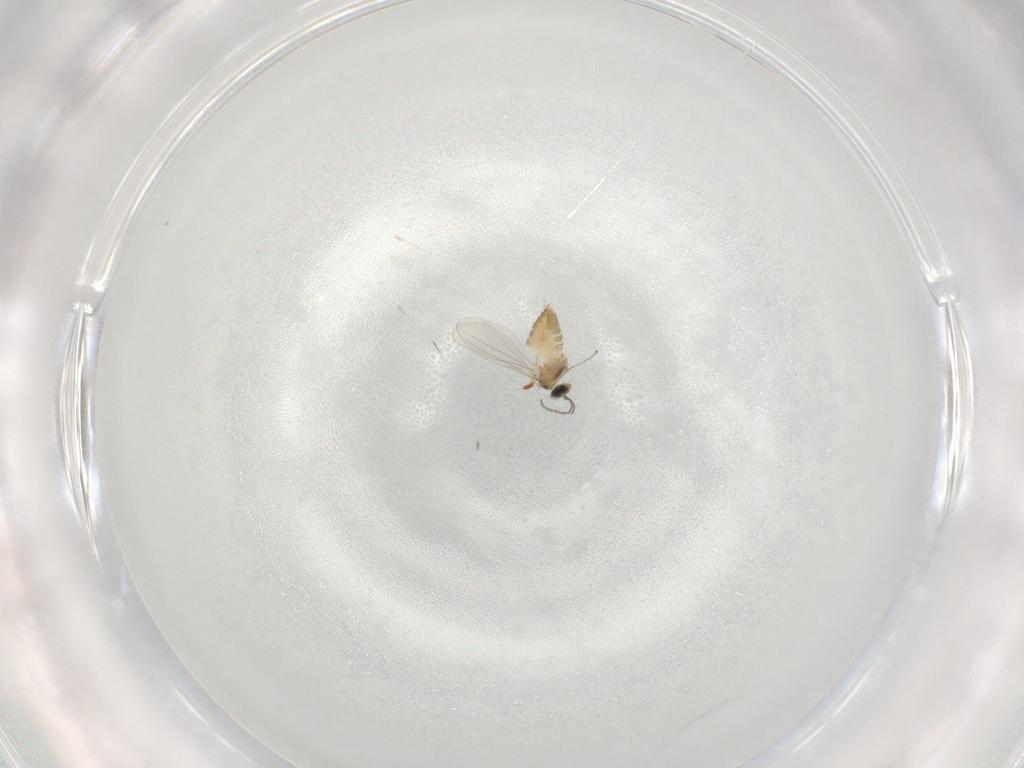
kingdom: Animalia
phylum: Arthropoda
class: Insecta
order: Diptera
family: Cecidomyiidae
